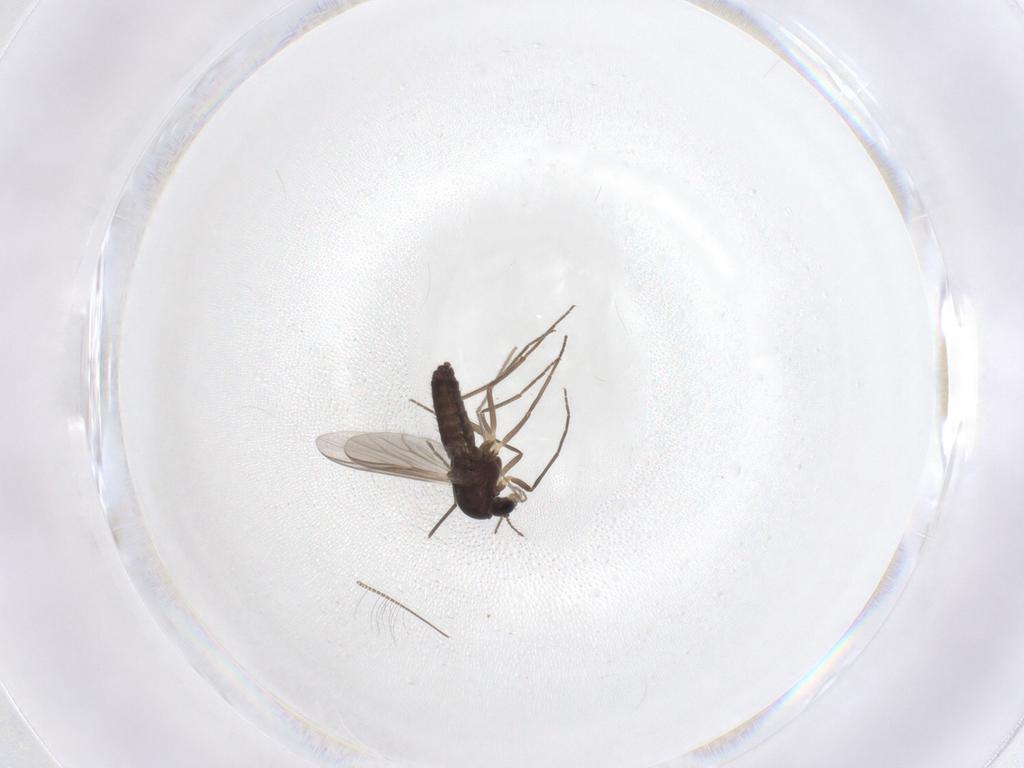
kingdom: Animalia
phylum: Arthropoda
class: Insecta
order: Diptera
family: Chironomidae
